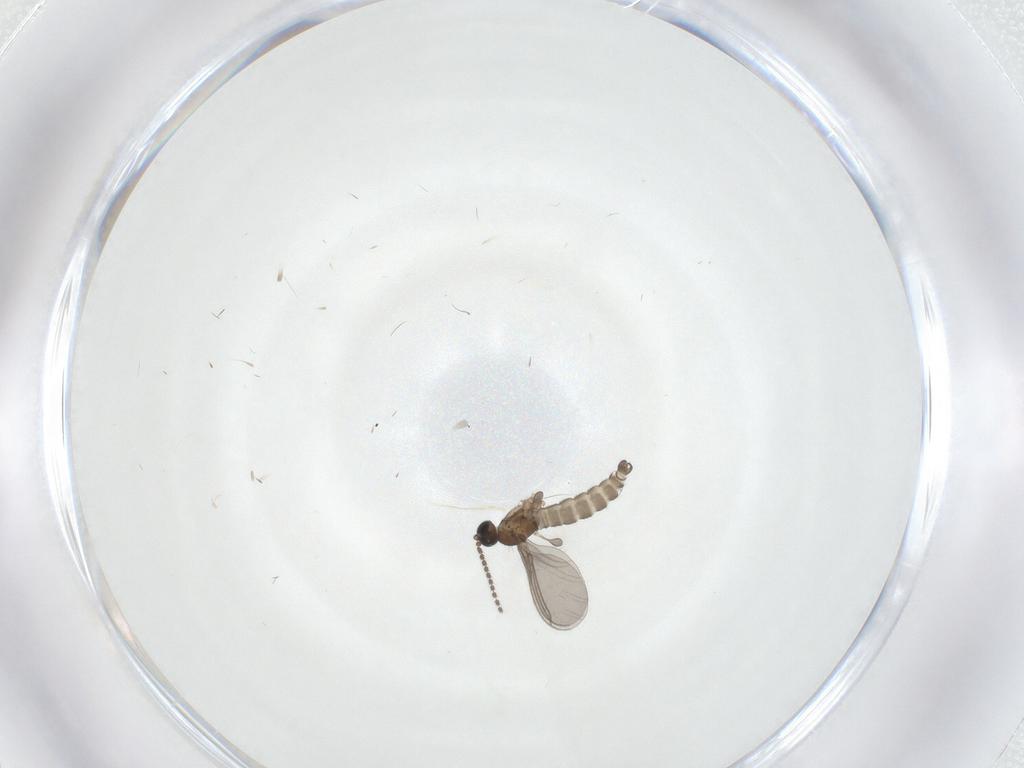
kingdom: Animalia
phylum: Arthropoda
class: Insecta
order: Diptera
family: Sciaridae
